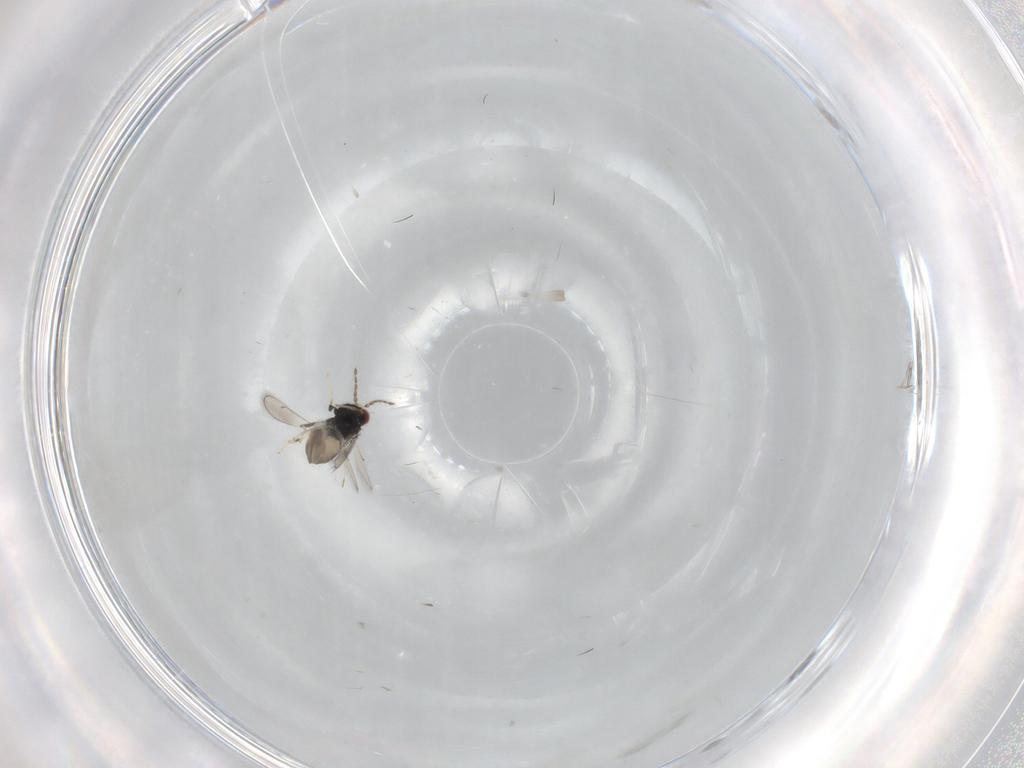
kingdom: Animalia
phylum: Arthropoda
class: Insecta
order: Hymenoptera
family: Eulophidae
